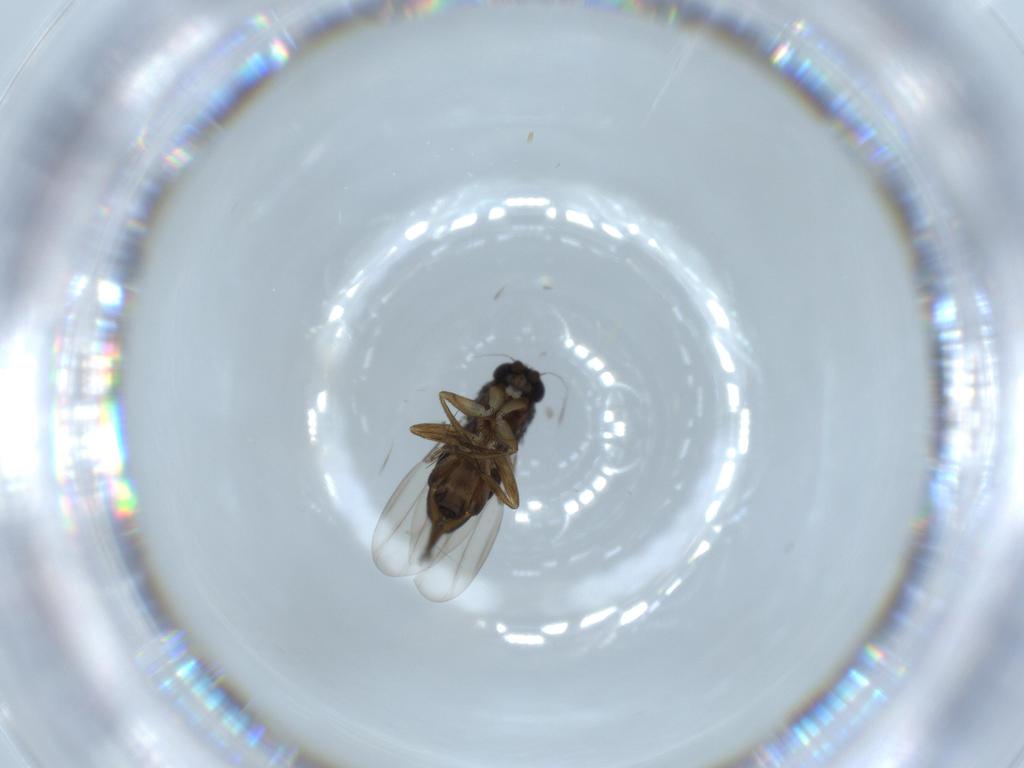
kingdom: Animalia
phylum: Arthropoda
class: Insecta
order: Diptera
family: Phoridae
